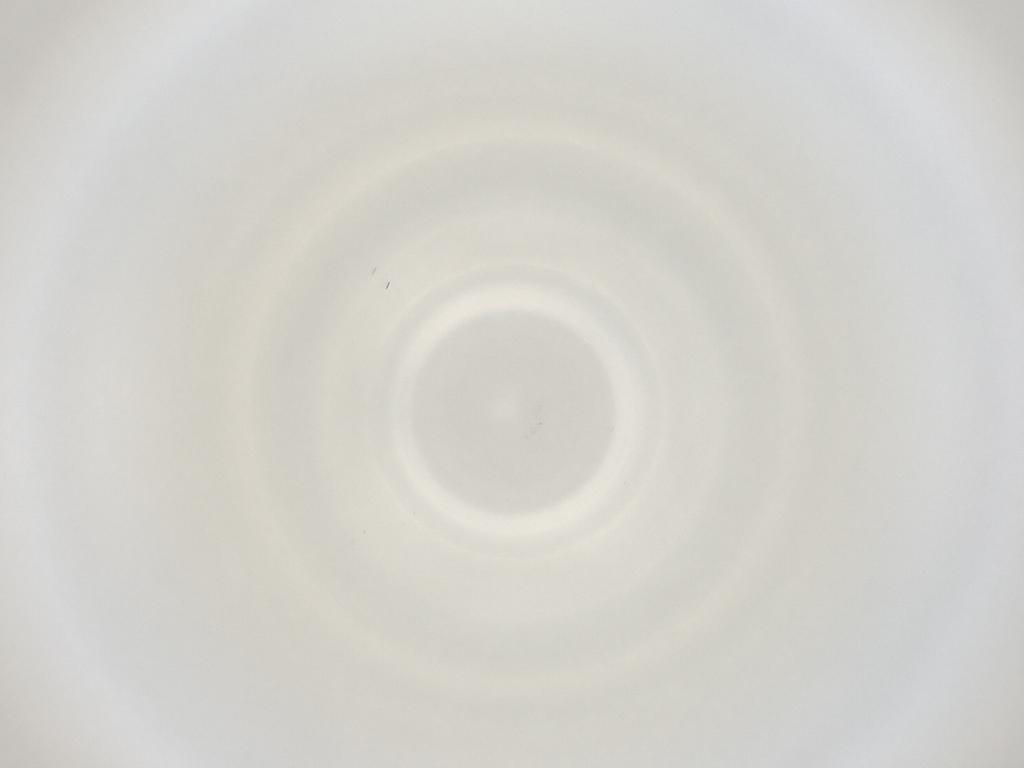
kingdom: Animalia
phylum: Arthropoda
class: Insecta
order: Diptera
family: Cecidomyiidae
